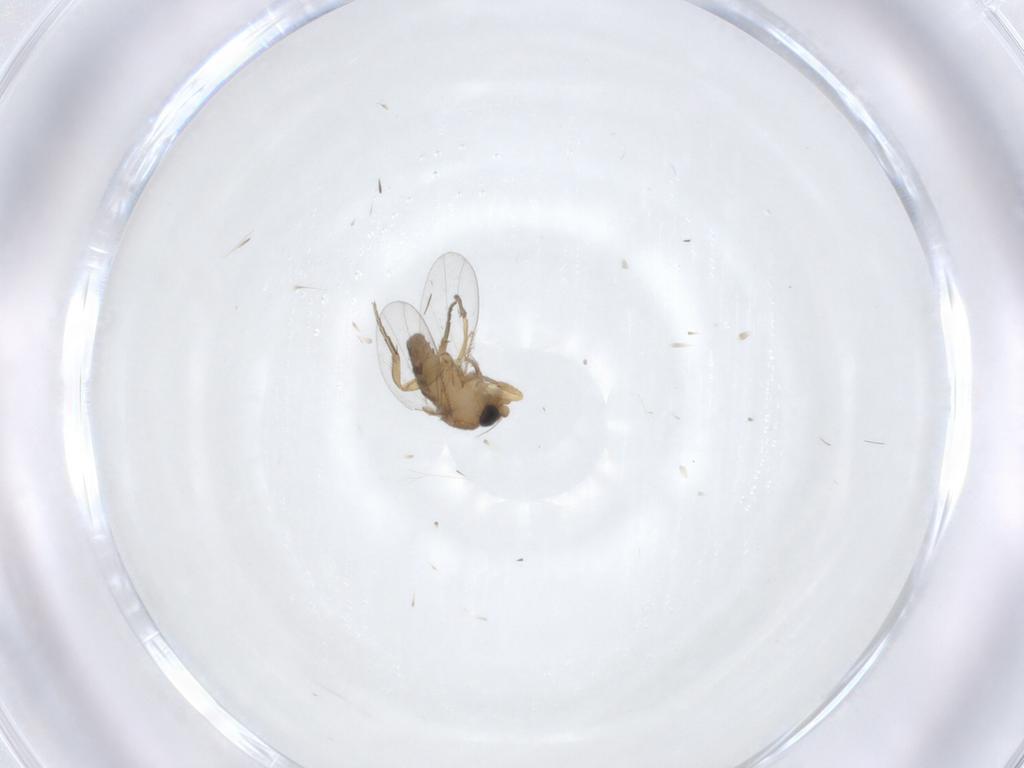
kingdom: Animalia
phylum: Arthropoda
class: Insecta
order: Diptera
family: Phoridae
